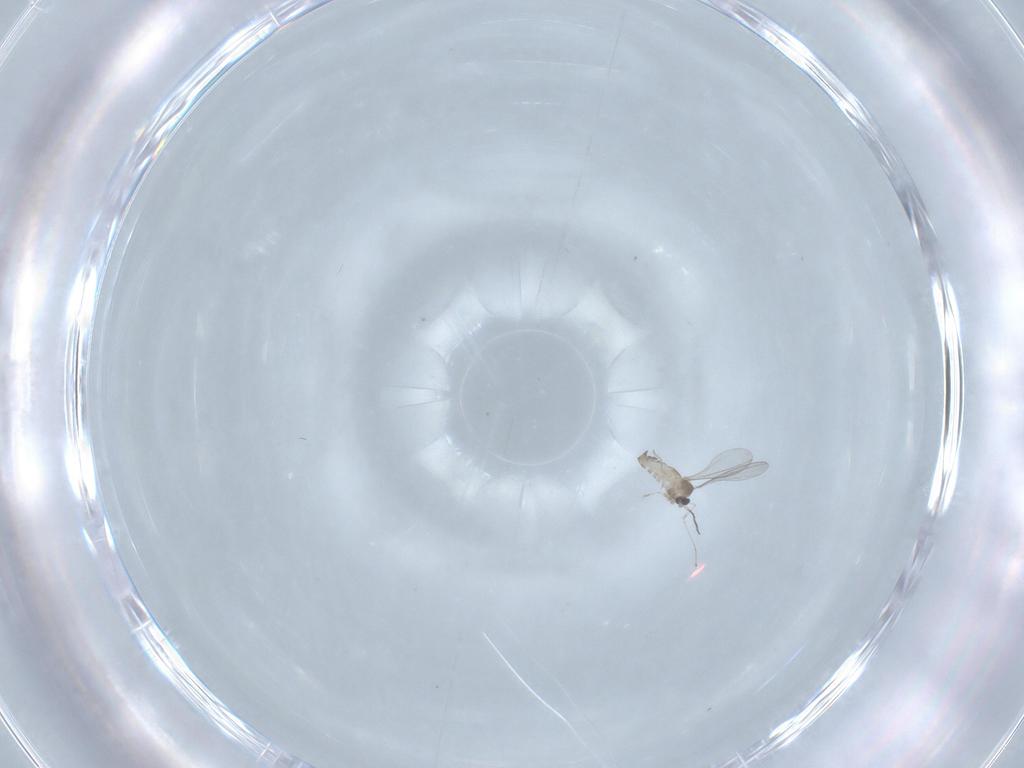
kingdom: Animalia
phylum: Arthropoda
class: Insecta
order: Diptera
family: Cecidomyiidae
